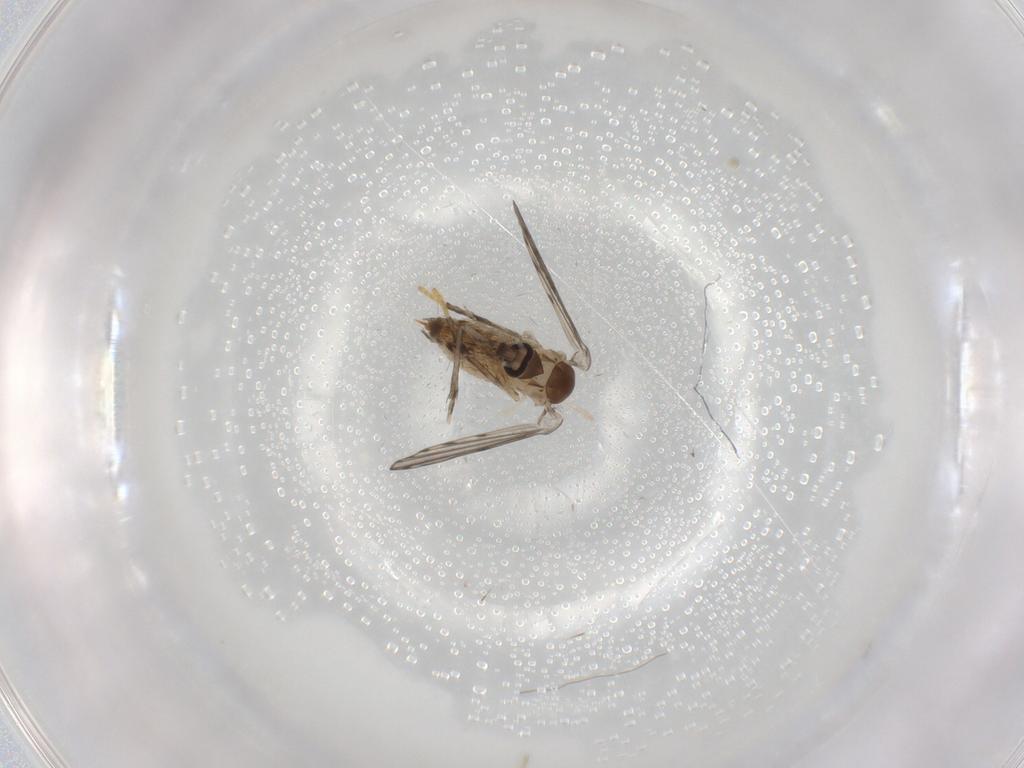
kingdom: Animalia
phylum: Arthropoda
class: Insecta
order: Diptera
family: Psychodidae
